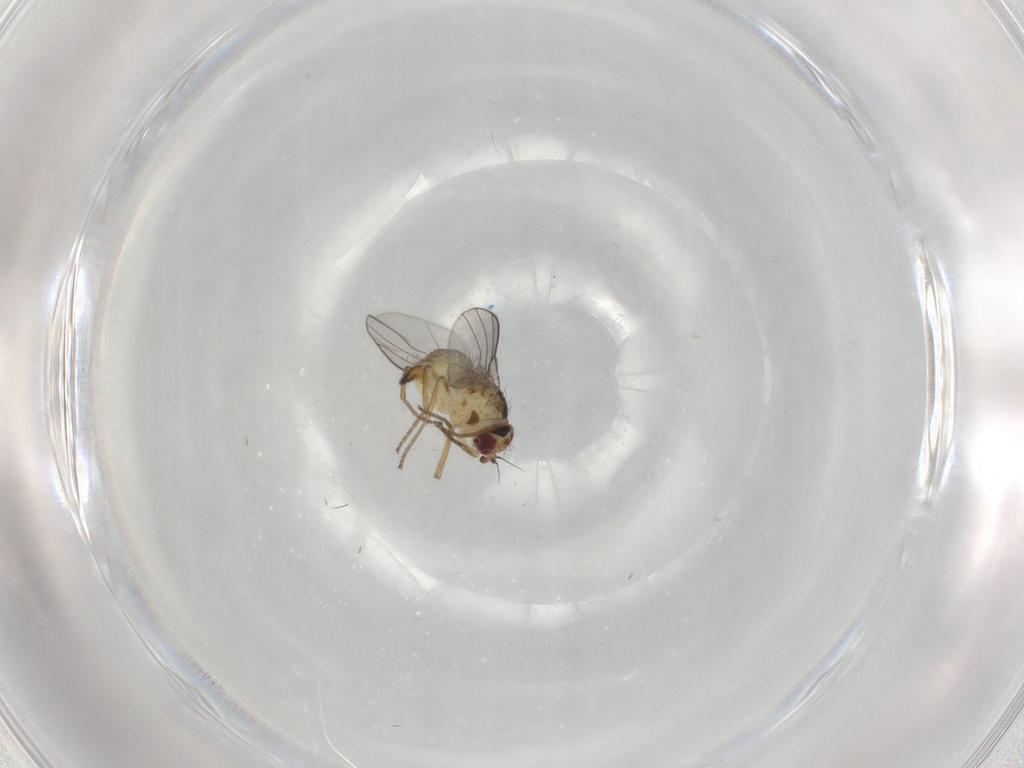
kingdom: Animalia
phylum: Arthropoda
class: Insecta
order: Diptera
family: Agromyzidae
